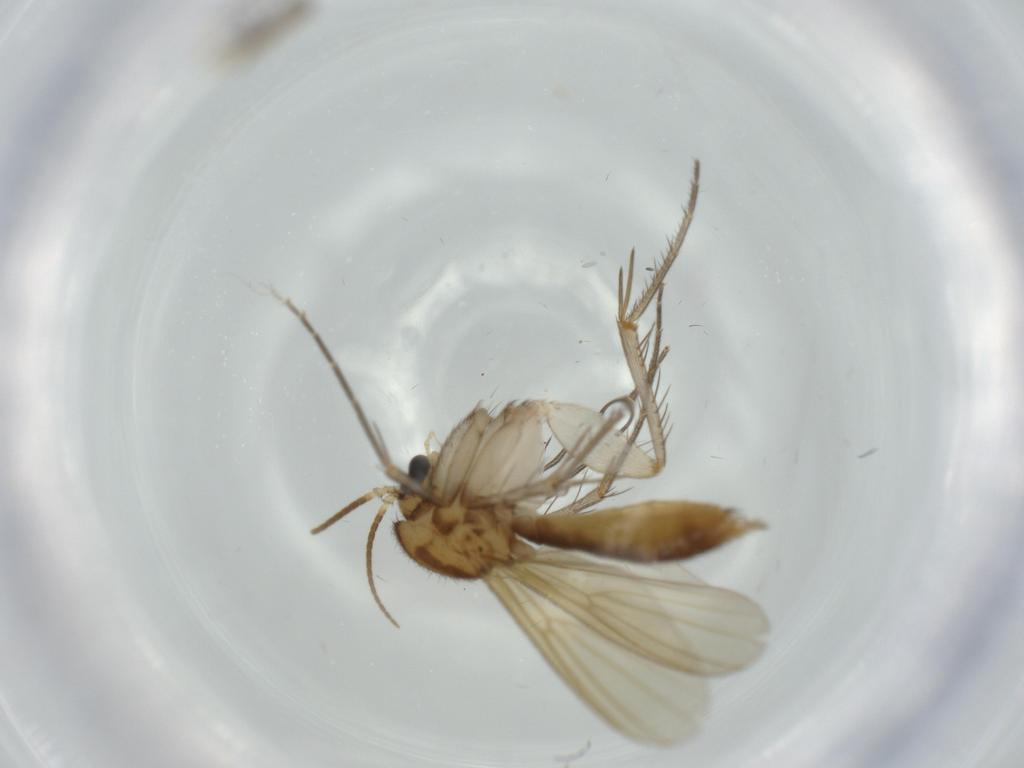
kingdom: Animalia
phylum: Arthropoda
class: Insecta
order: Diptera
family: Mycetophilidae
